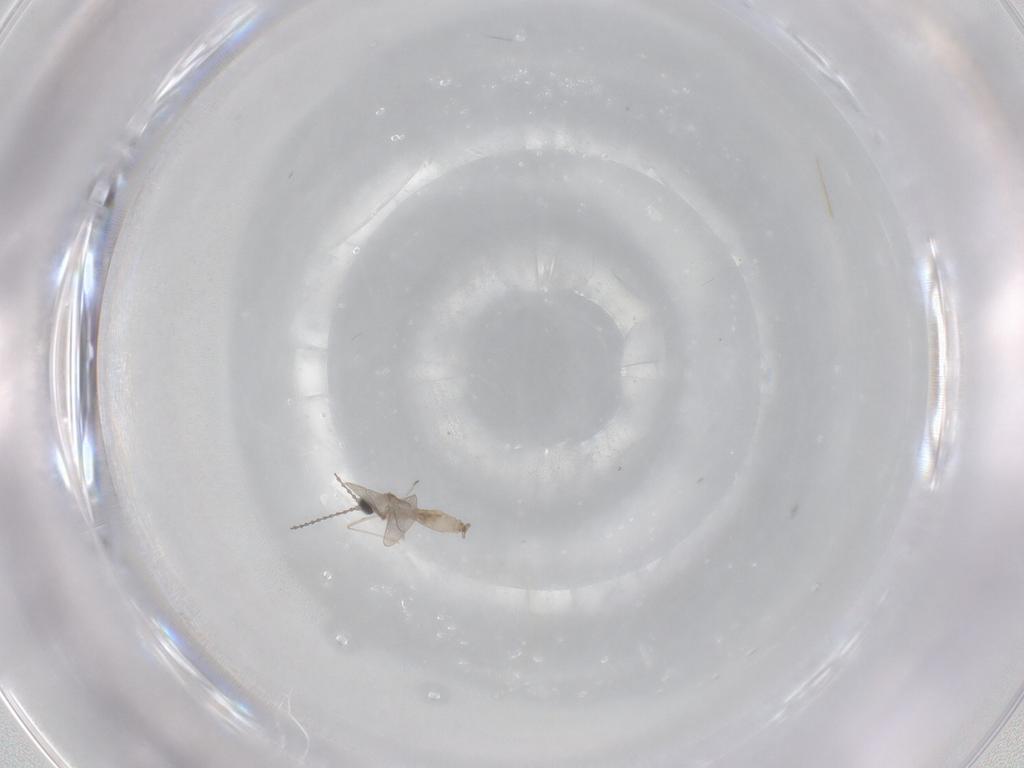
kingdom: Animalia
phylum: Arthropoda
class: Insecta
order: Diptera
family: Cecidomyiidae
